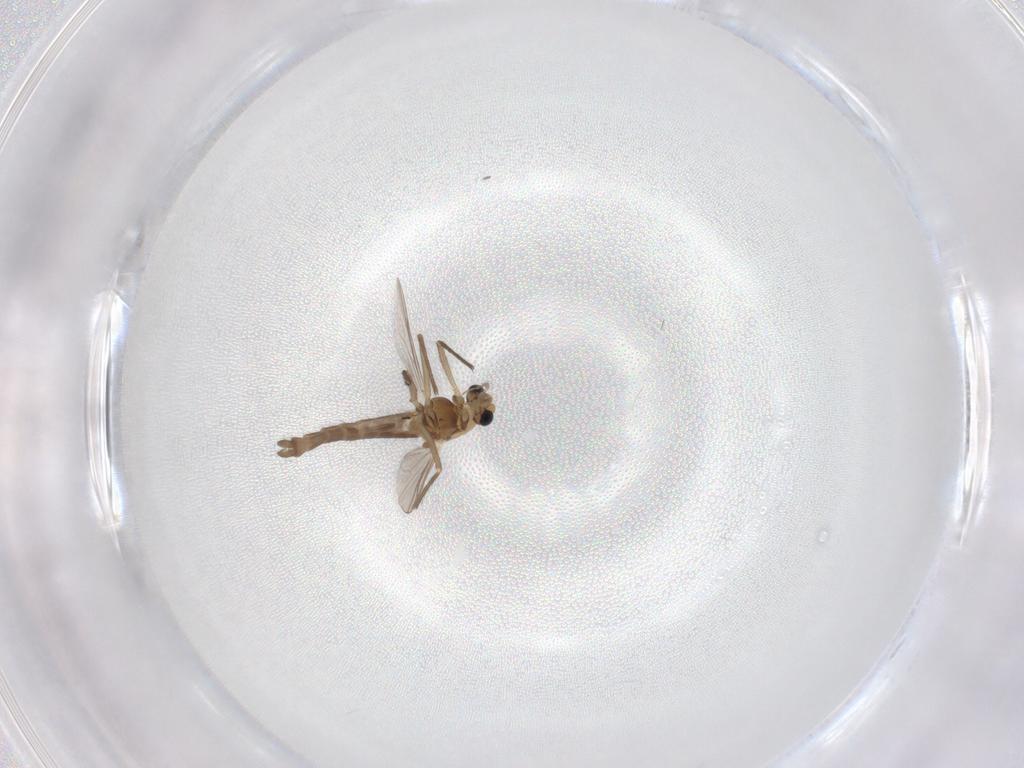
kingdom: Animalia
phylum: Arthropoda
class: Insecta
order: Diptera
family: Chironomidae
